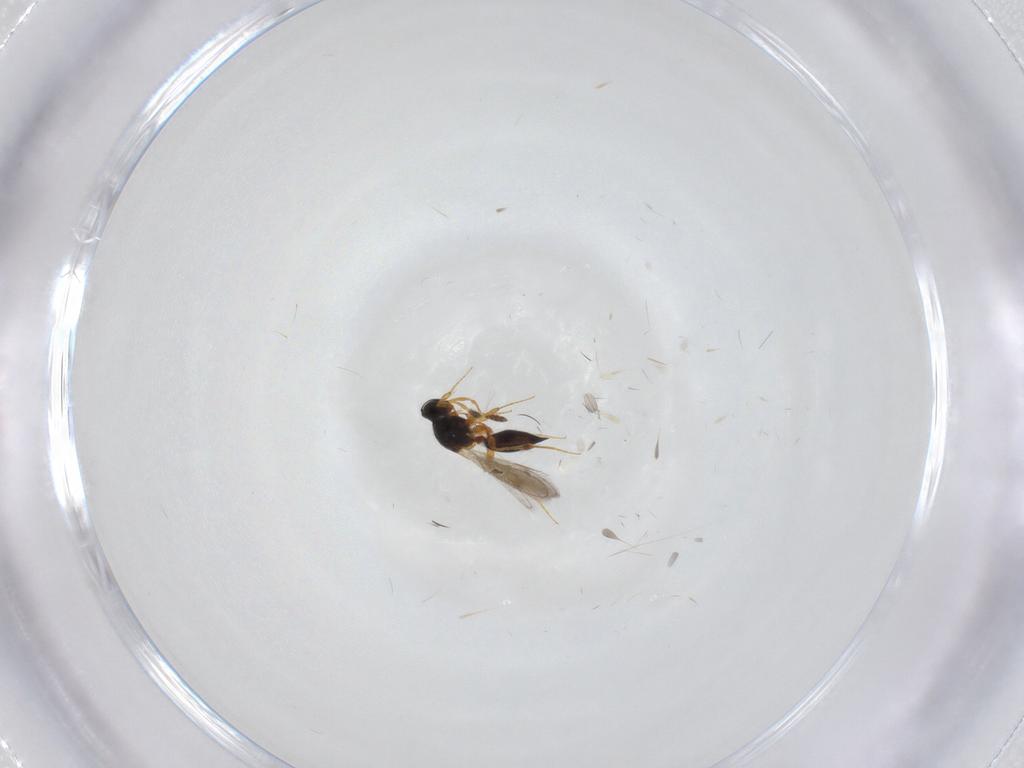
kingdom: Animalia
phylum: Arthropoda
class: Insecta
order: Hymenoptera
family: Platygastridae
